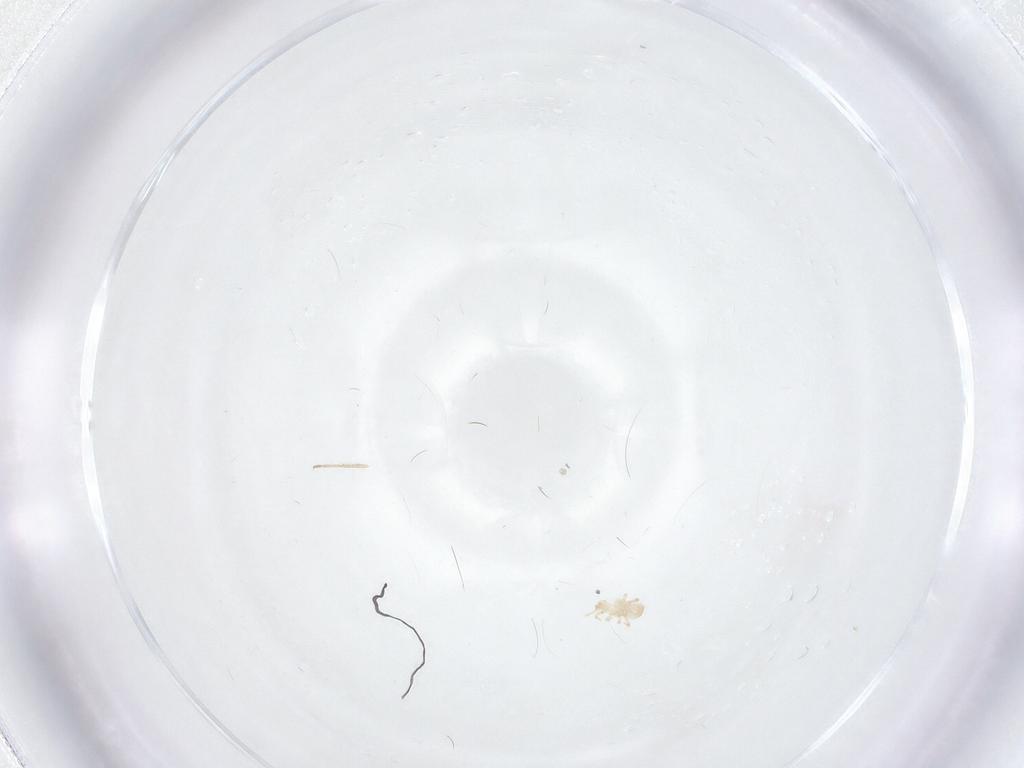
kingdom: Animalia
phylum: Arthropoda
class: Arachnida
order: Mesostigmata
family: Ascidae
